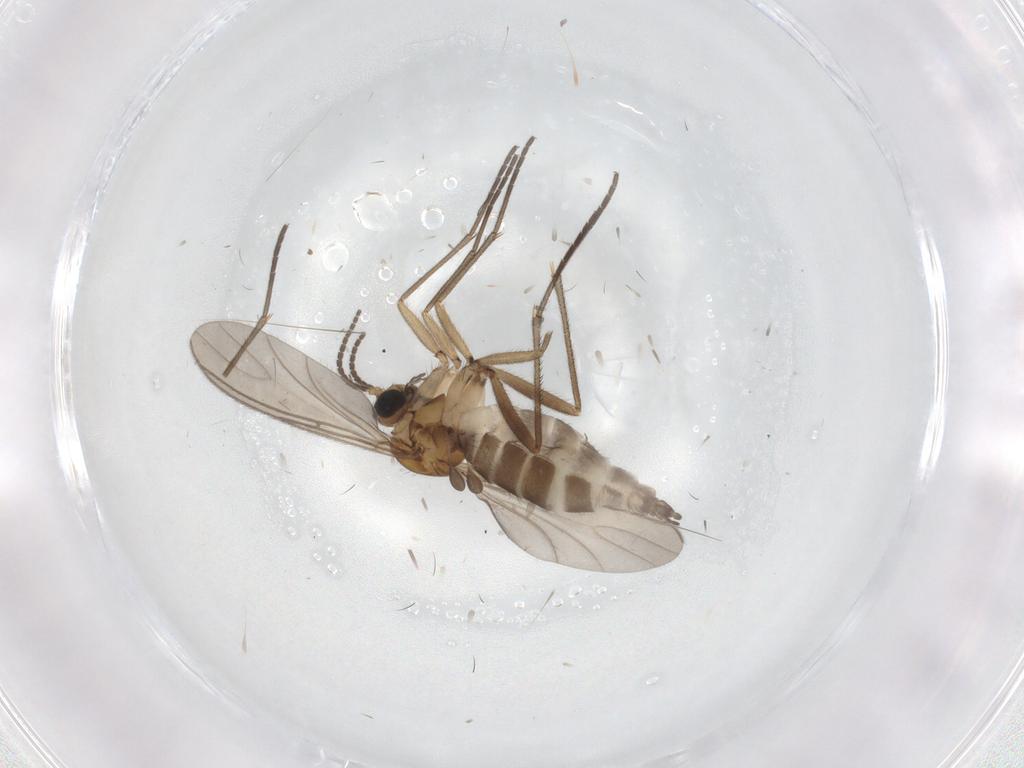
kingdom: Animalia
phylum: Arthropoda
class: Insecta
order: Diptera
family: Sciaridae
